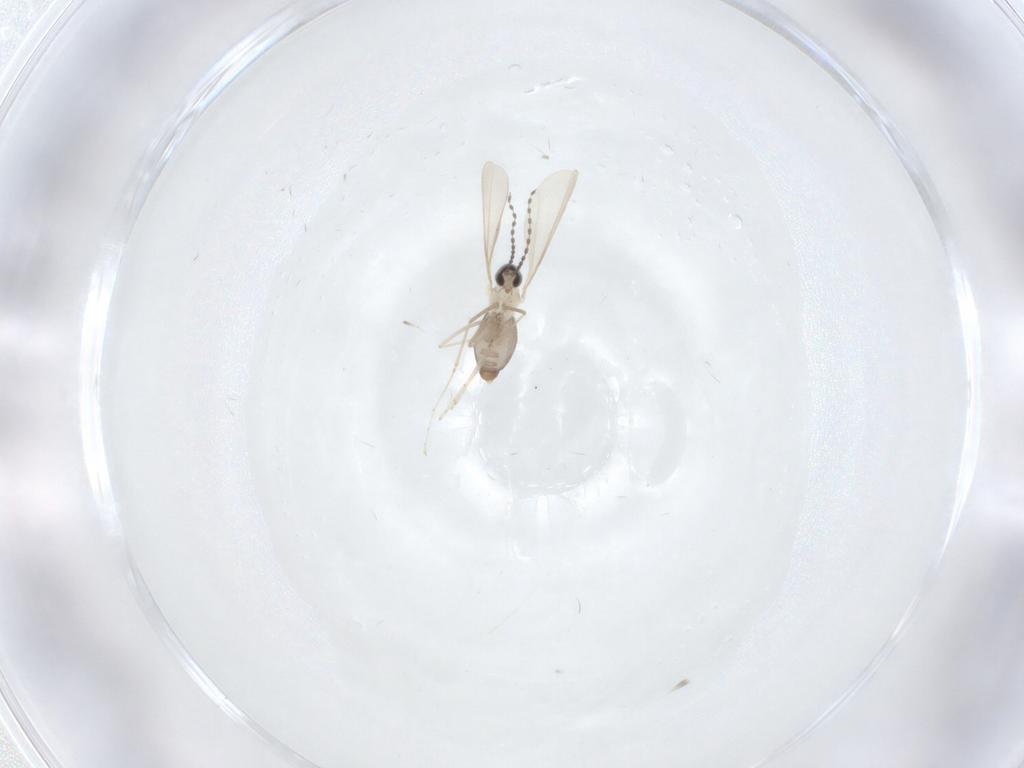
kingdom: Animalia
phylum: Arthropoda
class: Insecta
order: Diptera
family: Cecidomyiidae
